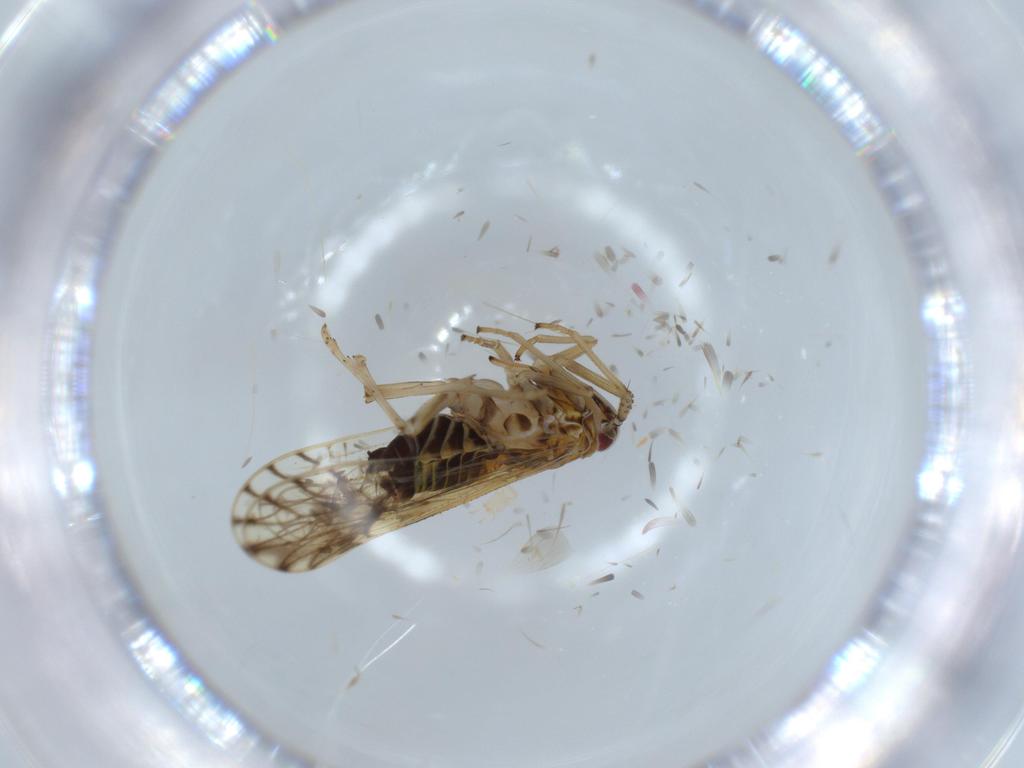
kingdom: Animalia
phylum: Arthropoda
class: Insecta
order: Hemiptera
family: Delphacidae
